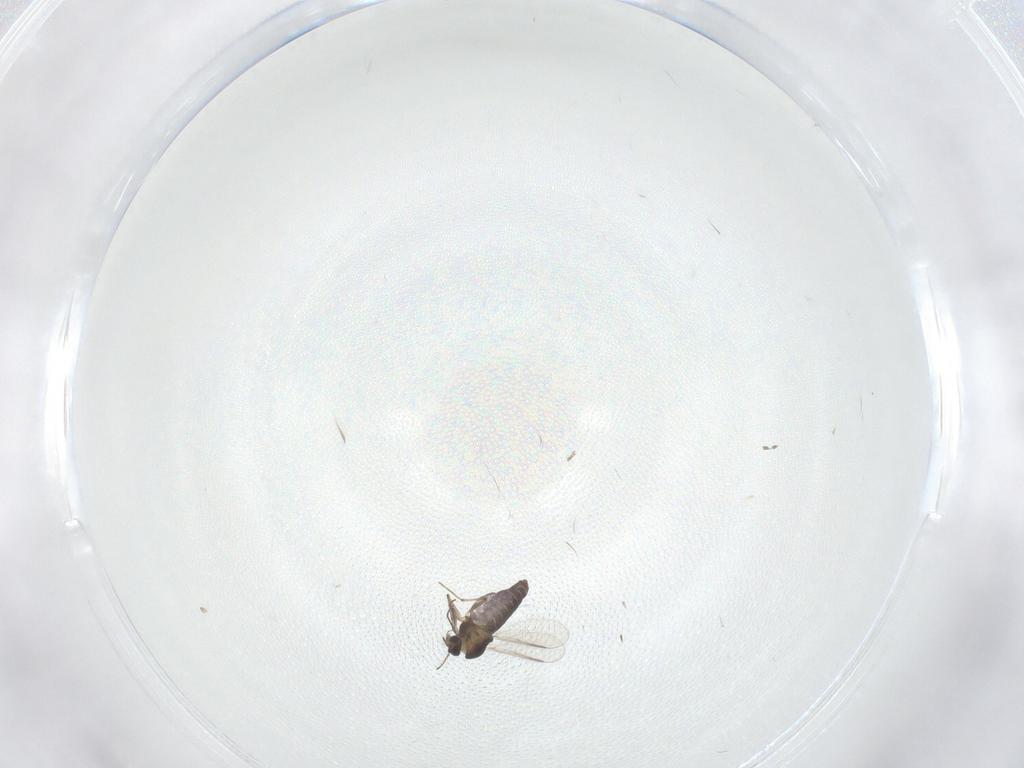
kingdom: Animalia
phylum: Arthropoda
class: Insecta
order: Diptera
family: Chironomidae
